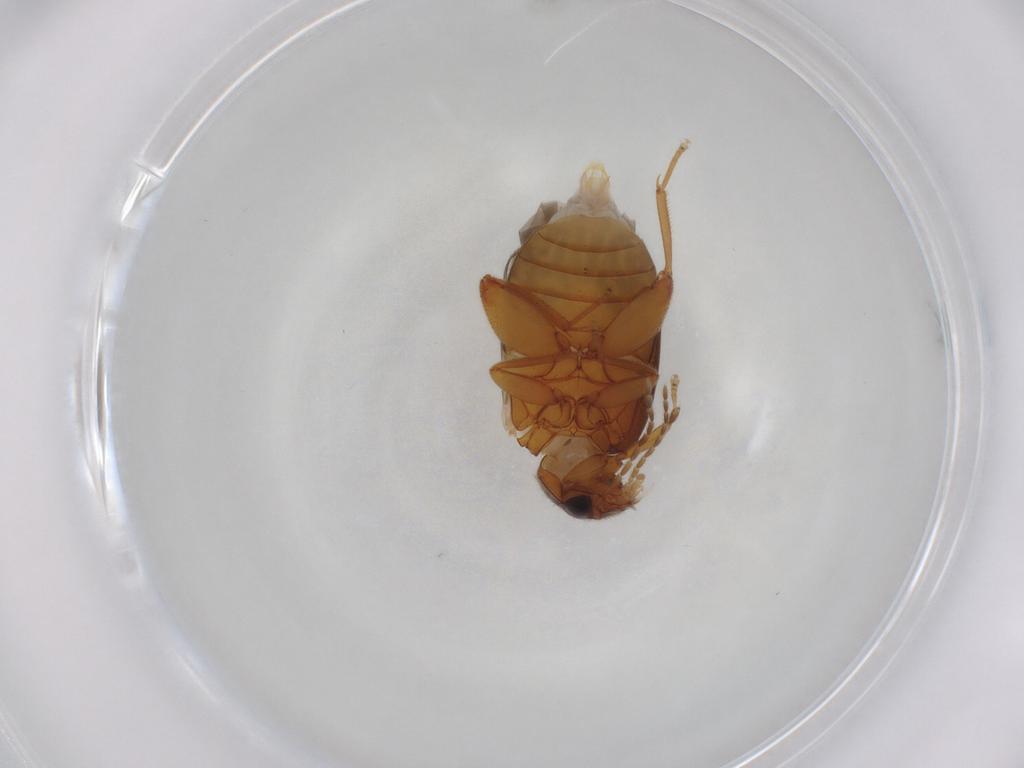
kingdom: Animalia
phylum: Arthropoda
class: Insecta
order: Coleoptera
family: Scirtidae
